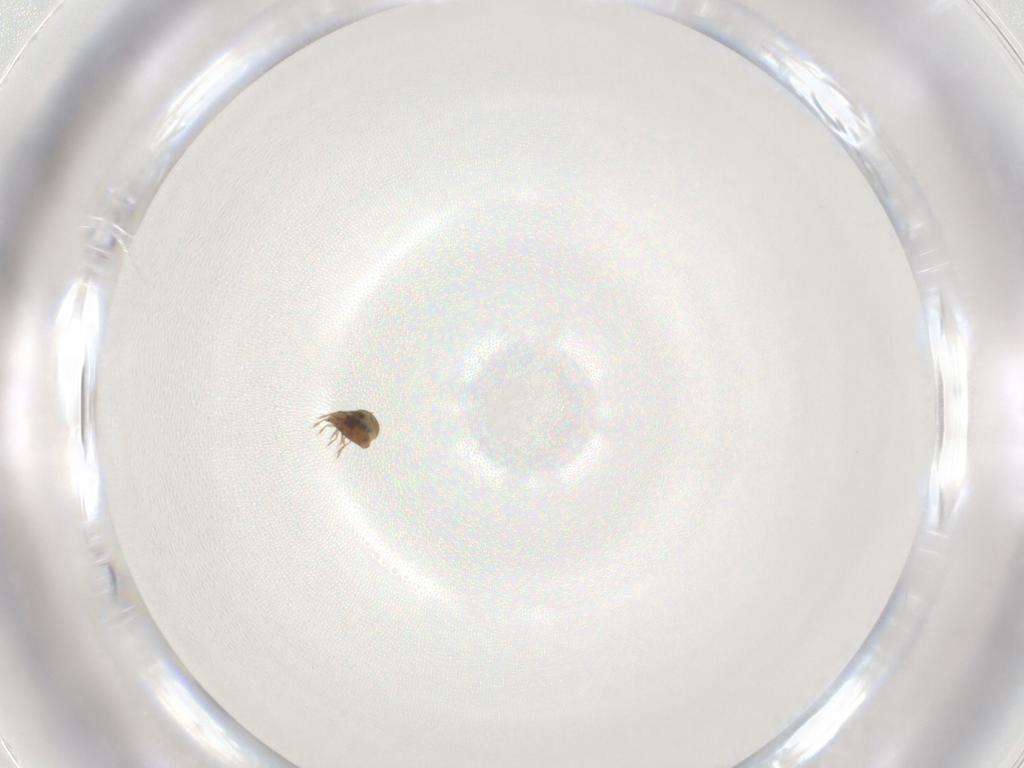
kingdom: Animalia
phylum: Arthropoda
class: Arachnida
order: Sarcoptiformes
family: Oribatulidae
